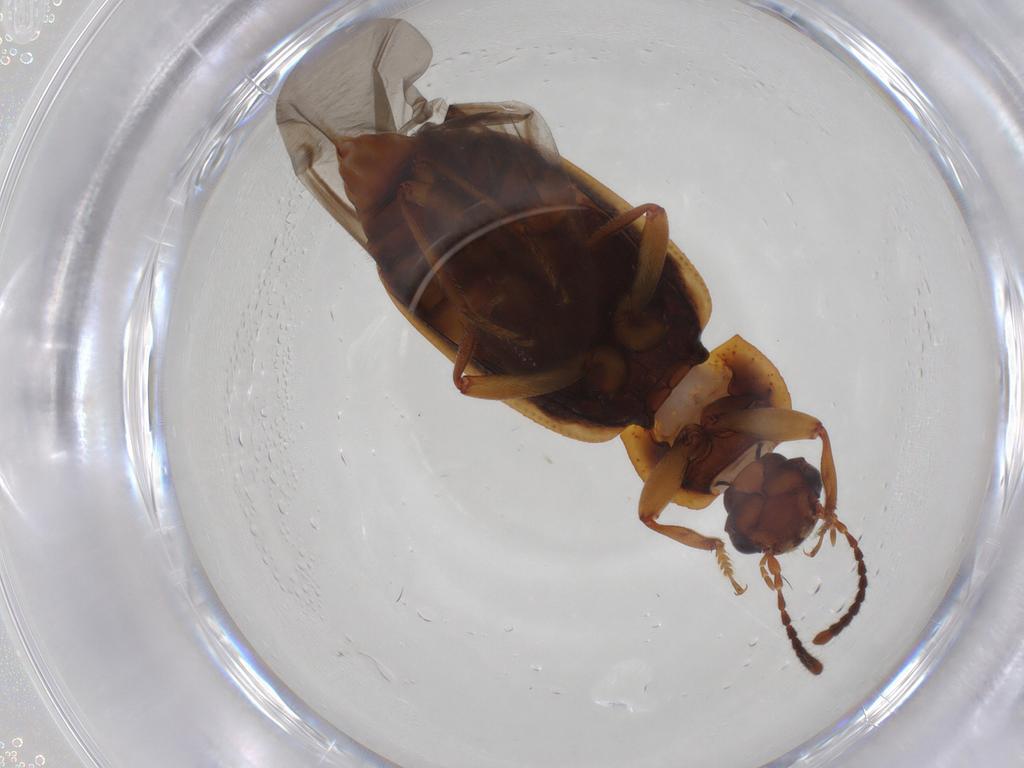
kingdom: Animalia
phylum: Arthropoda
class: Insecta
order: Coleoptera
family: Staphylinidae
